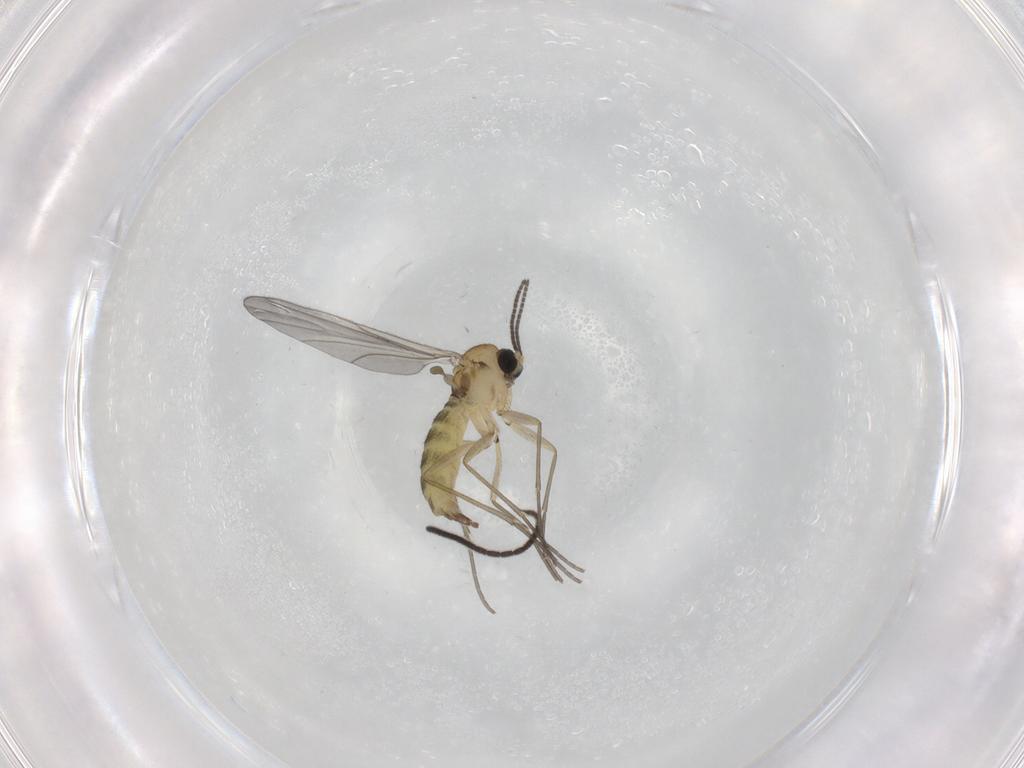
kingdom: Animalia
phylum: Arthropoda
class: Insecta
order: Diptera
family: Sciaridae
